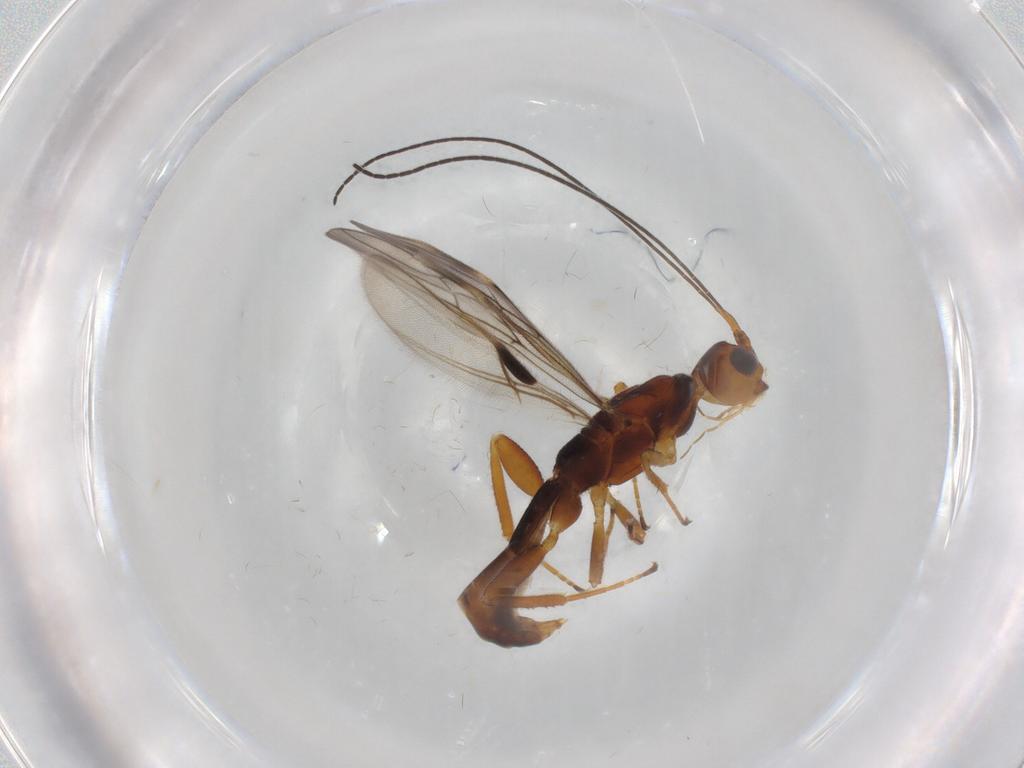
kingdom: Animalia
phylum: Arthropoda
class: Insecta
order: Hymenoptera
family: Braconidae
